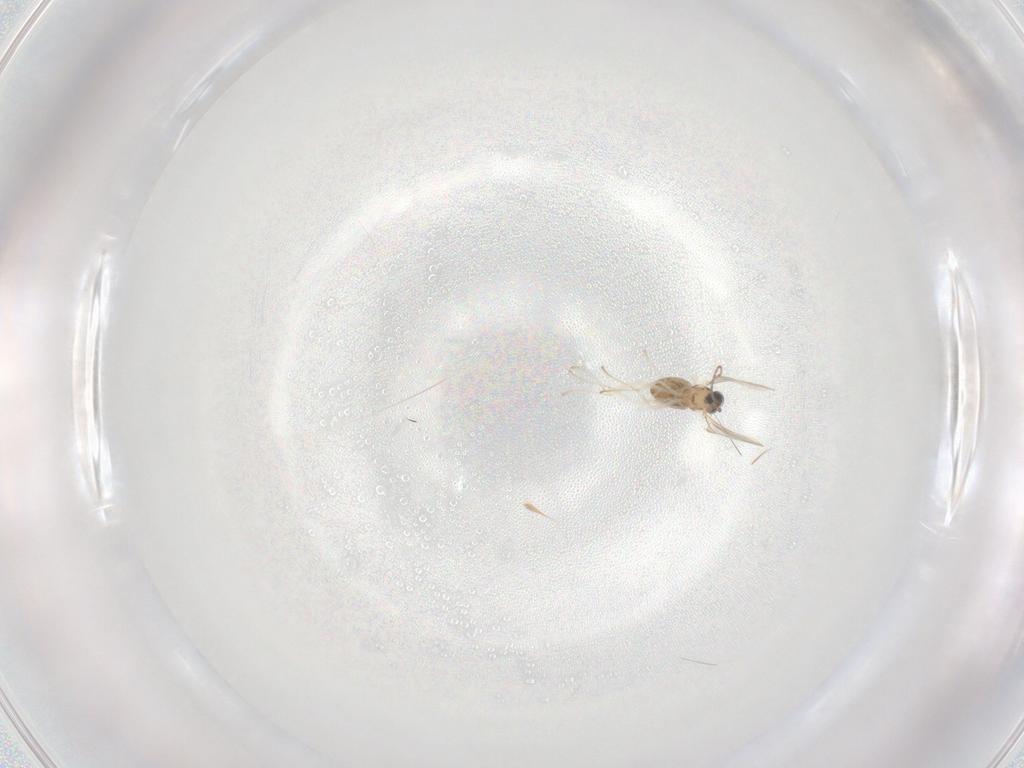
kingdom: Animalia
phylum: Arthropoda
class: Insecta
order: Diptera
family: Cecidomyiidae
